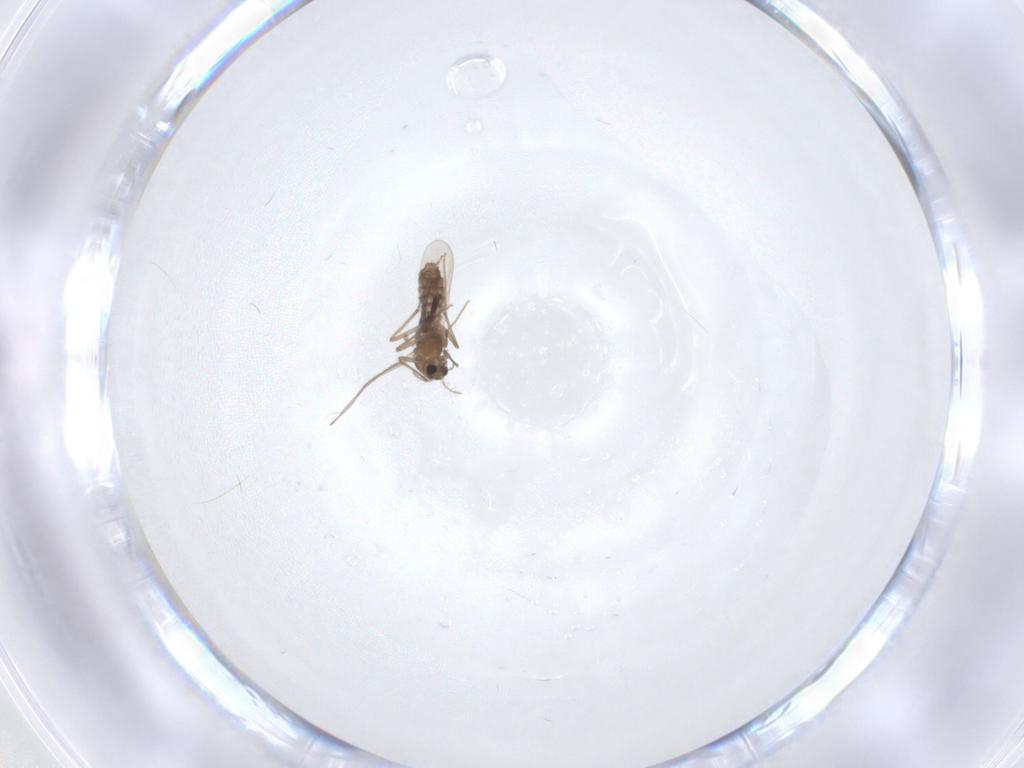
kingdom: Animalia
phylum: Arthropoda
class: Insecta
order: Diptera
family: Chironomidae
